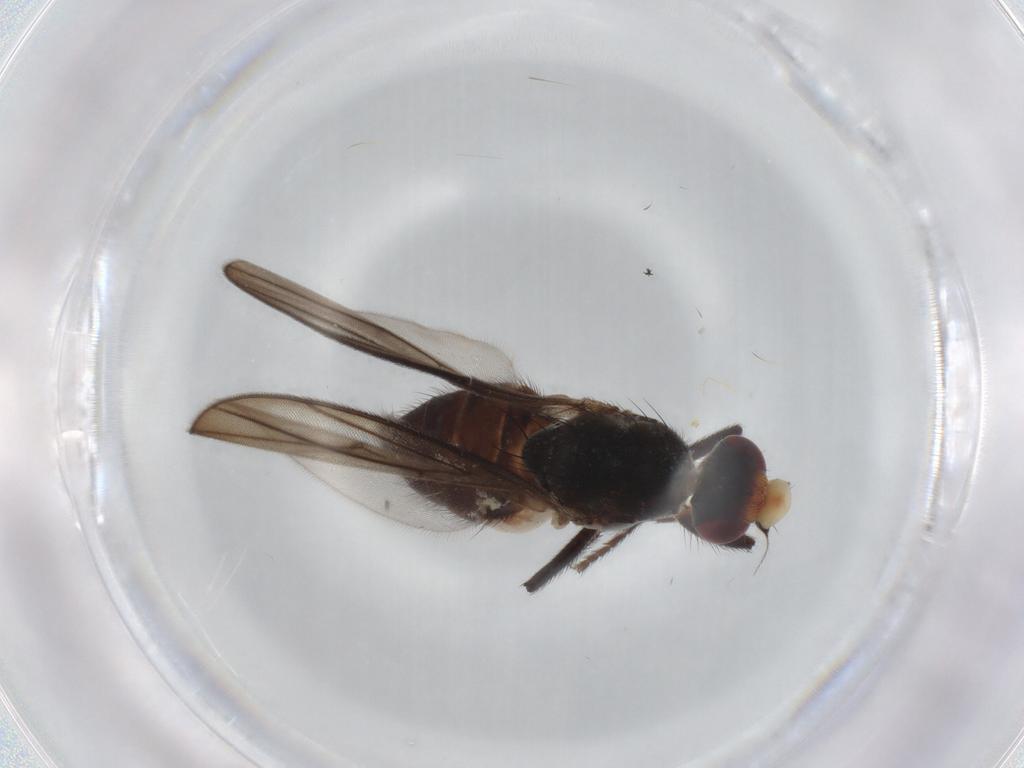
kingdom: Animalia
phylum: Arthropoda
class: Insecta
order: Diptera
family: Chloropidae
